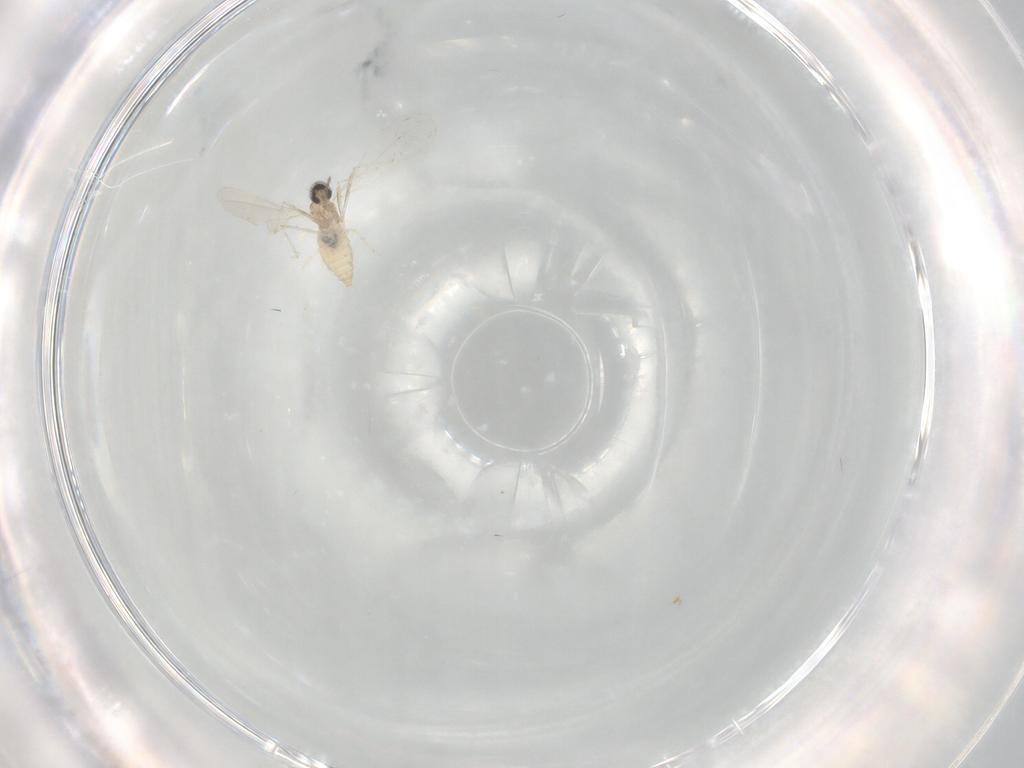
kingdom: Animalia
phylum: Arthropoda
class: Insecta
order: Diptera
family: Cecidomyiidae
